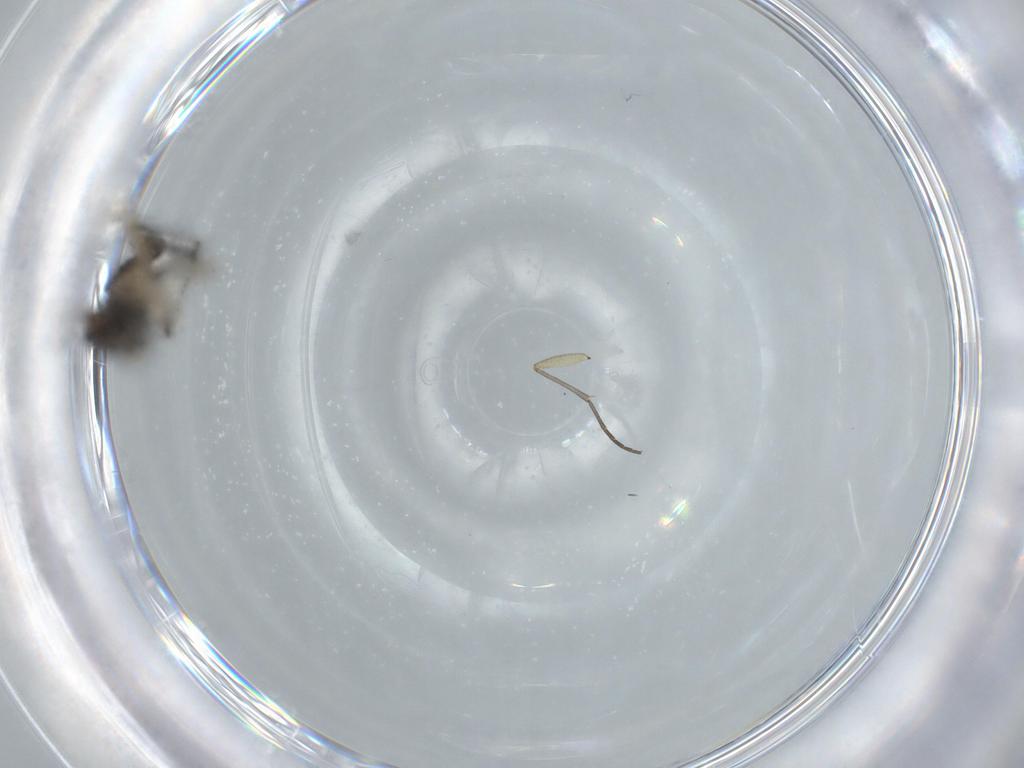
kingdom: Animalia
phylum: Arthropoda
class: Insecta
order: Diptera
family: Sciaridae
